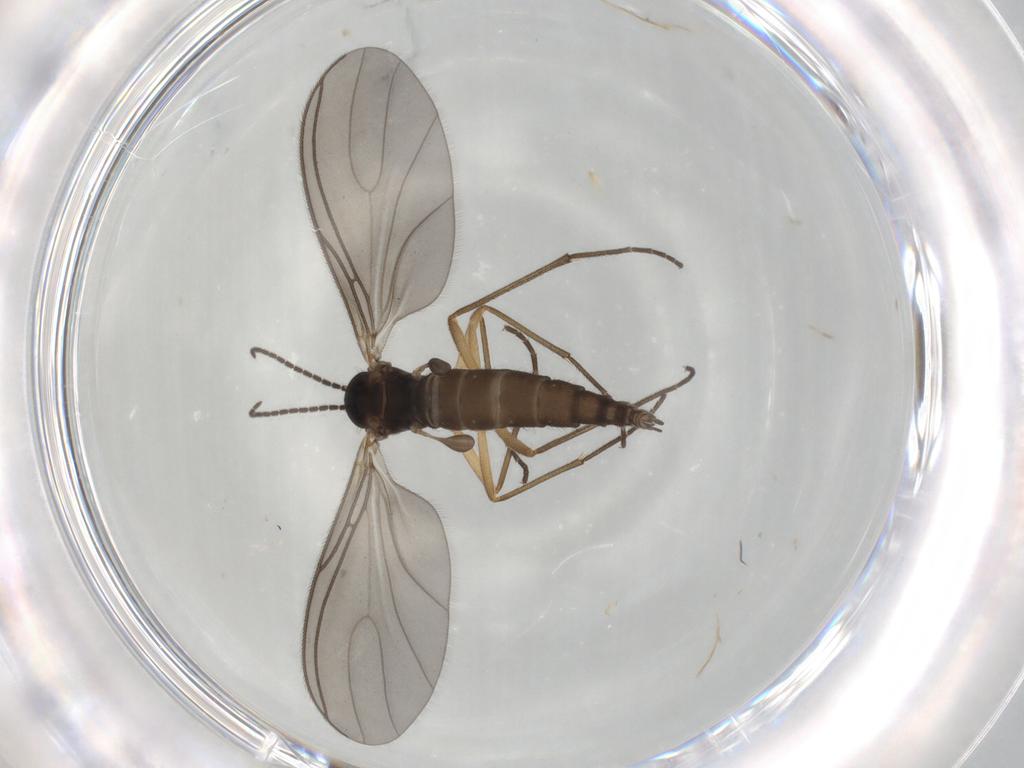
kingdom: Animalia
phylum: Arthropoda
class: Insecta
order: Diptera
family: Sciaridae
